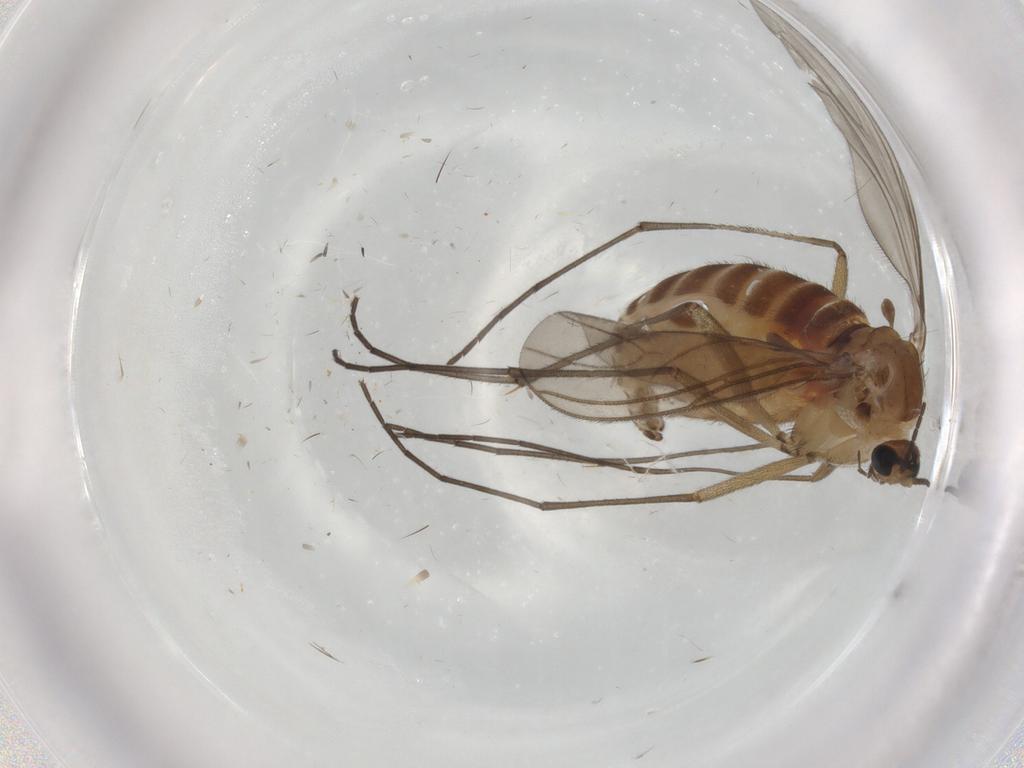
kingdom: Animalia
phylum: Arthropoda
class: Insecta
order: Diptera
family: Sciaridae
